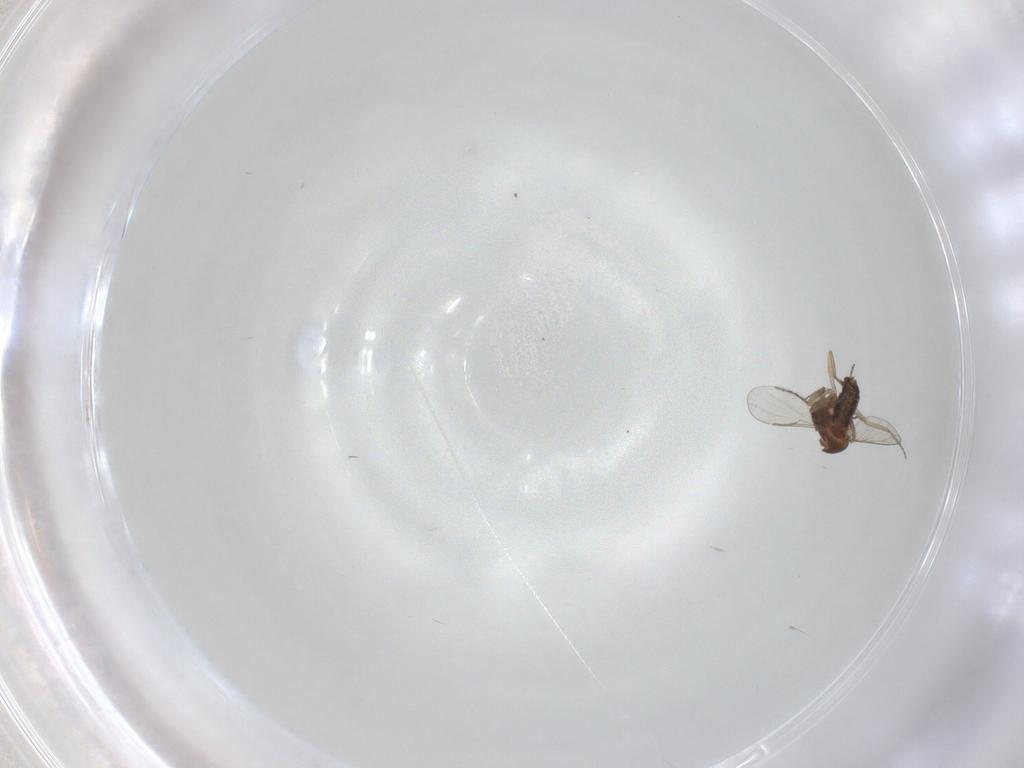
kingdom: Animalia
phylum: Arthropoda
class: Insecta
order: Diptera
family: Ceratopogonidae
